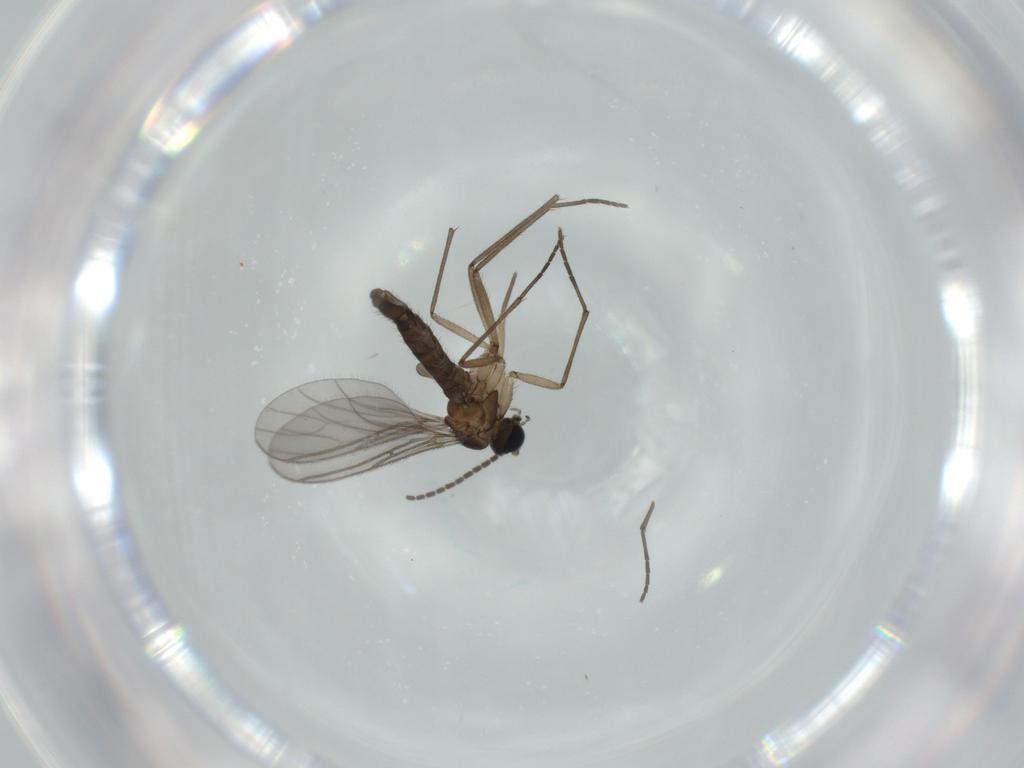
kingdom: Animalia
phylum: Arthropoda
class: Insecta
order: Diptera
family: Sciaridae
